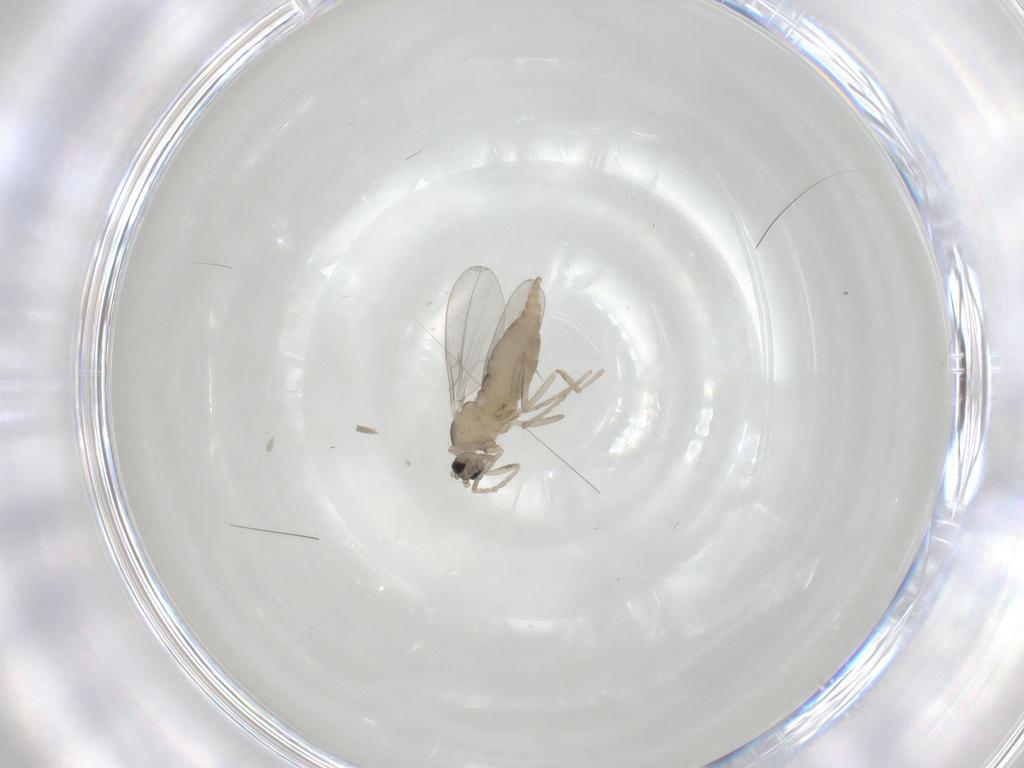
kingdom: Animalia
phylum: Arthropoda
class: Insecta
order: Diptera
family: Cecidomyiidae
